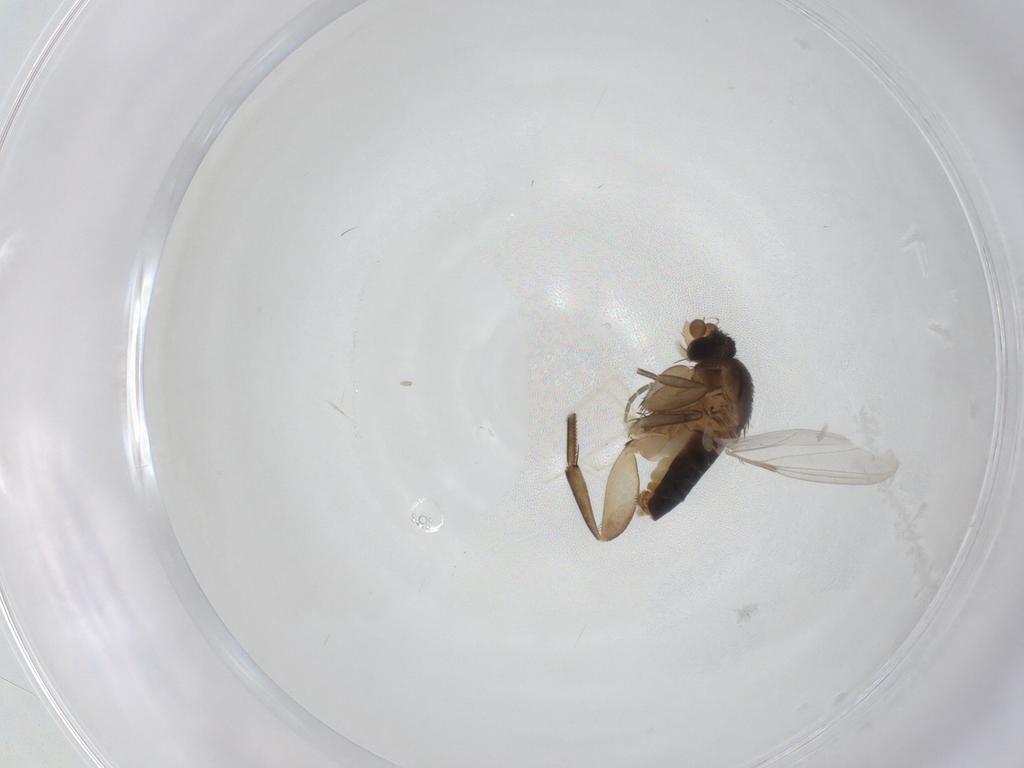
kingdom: Animalia
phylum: Arthropoda
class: Insecta
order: Diptera
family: Phoridae
